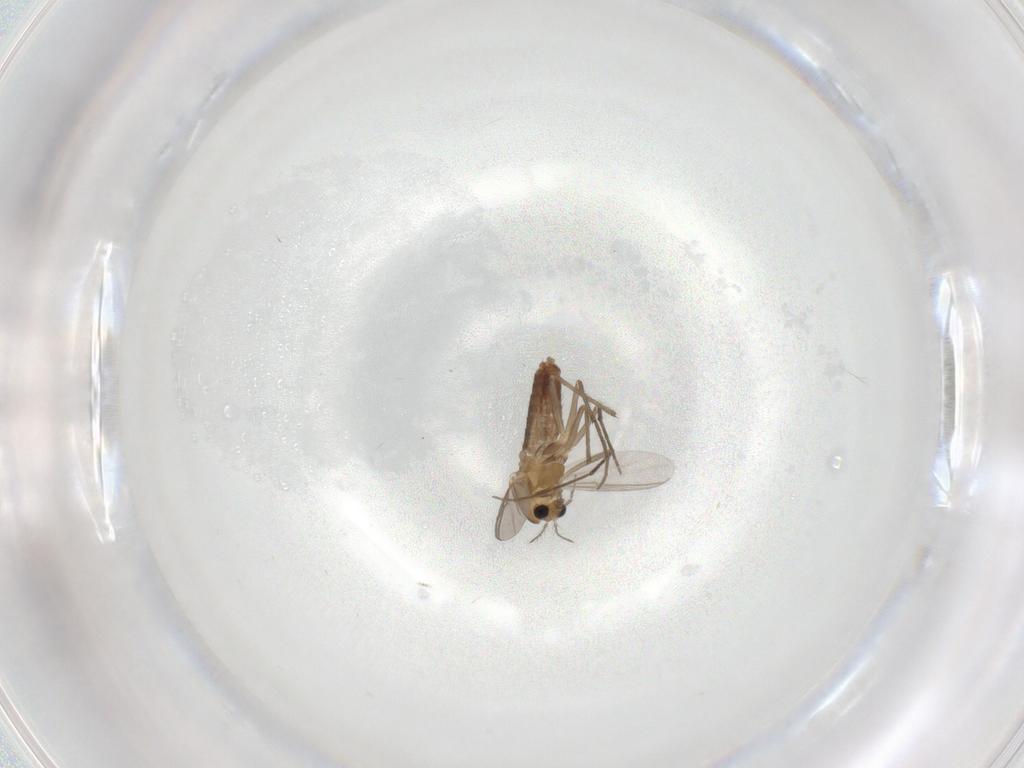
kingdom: Animalia
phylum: Arthropoda
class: Insecta
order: Diptera
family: Chironomidae
